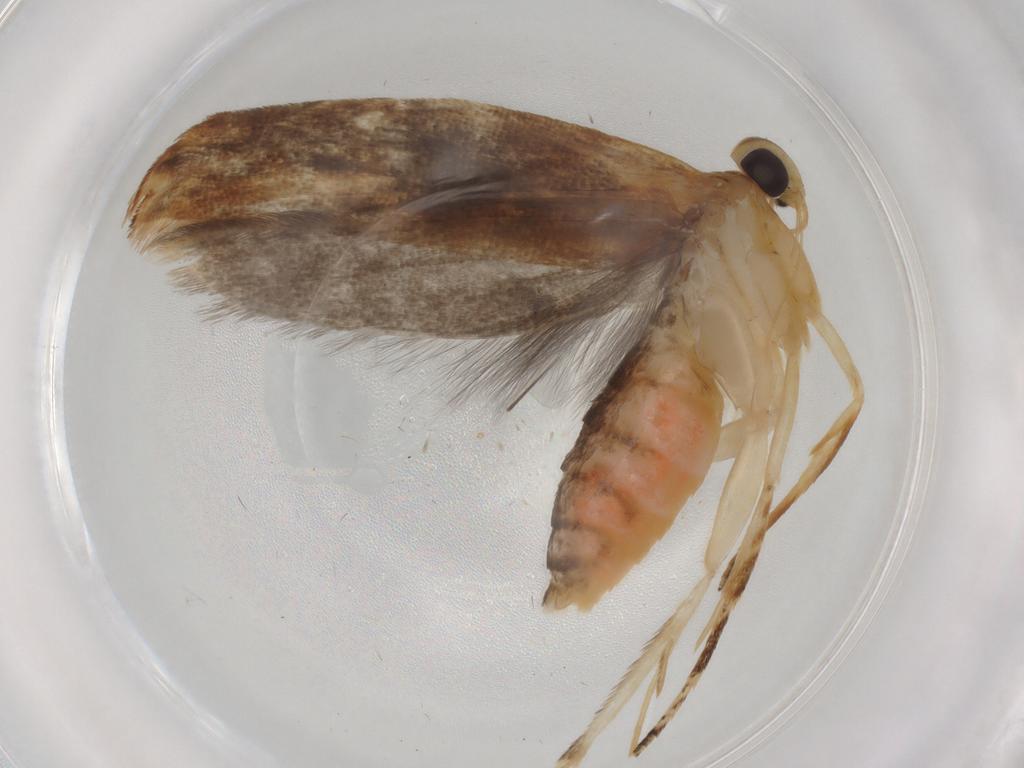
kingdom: Animalia
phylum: Arthropoda
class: Insecta
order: Lepidoptera
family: Gelechiidae
